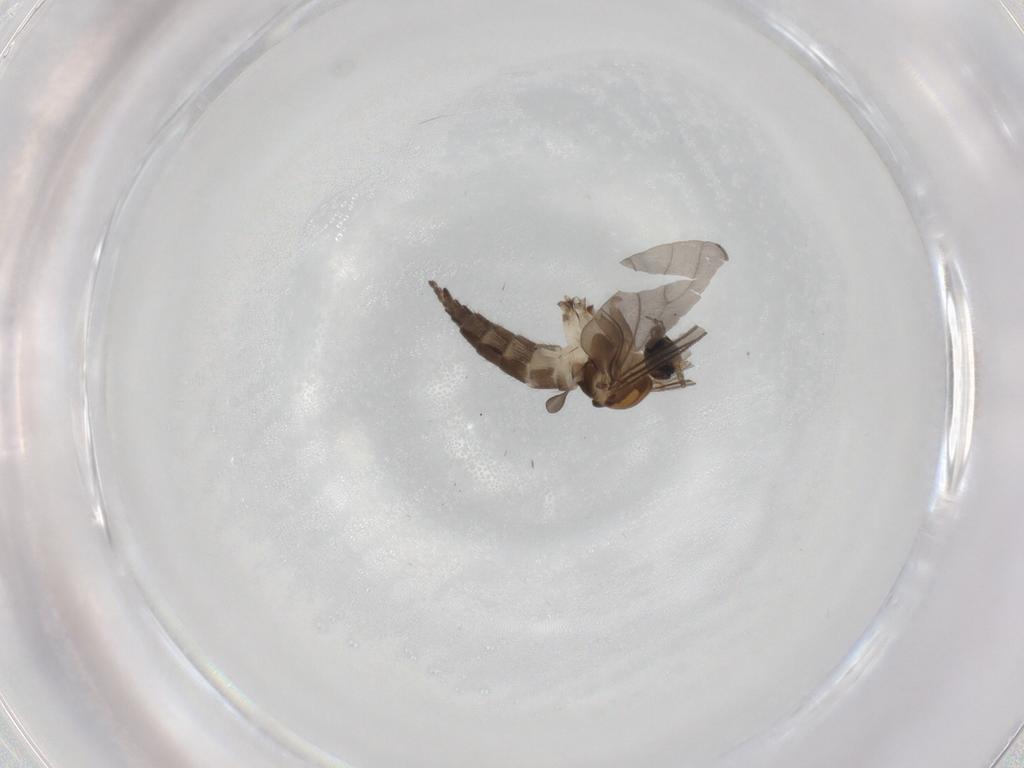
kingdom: Animalia
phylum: Arthropoda
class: Insecta
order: Diptera
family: Sciaridae
